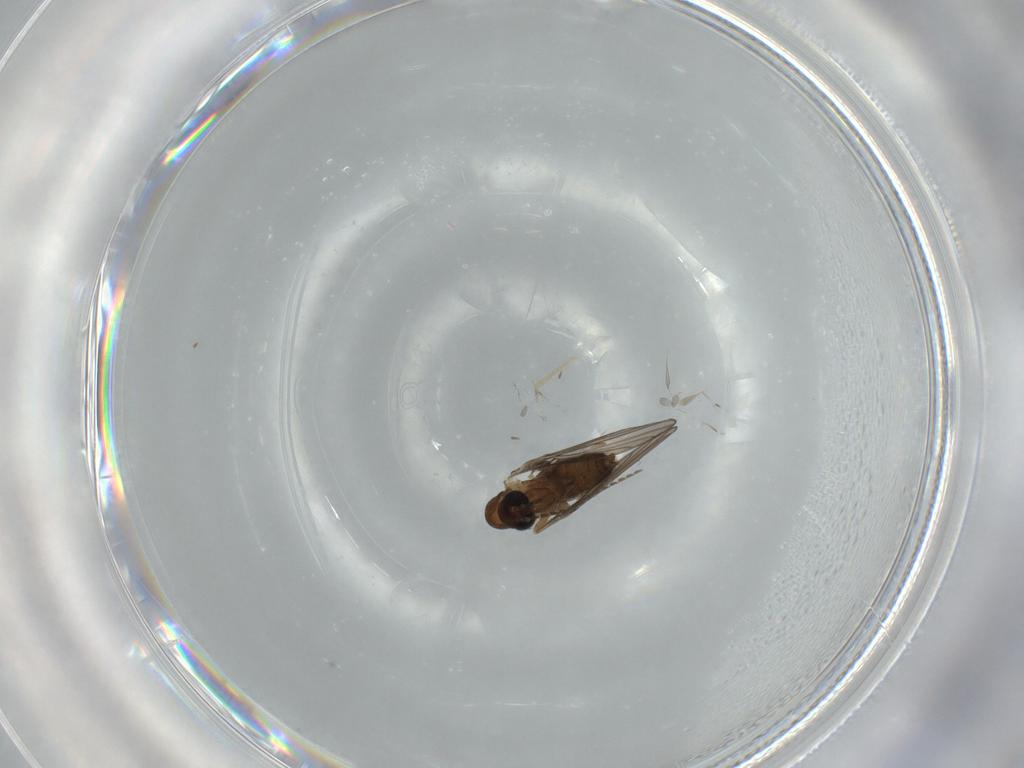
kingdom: Animalia
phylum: Arthropoda
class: Insecta
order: Diptera
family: Psychodidae
